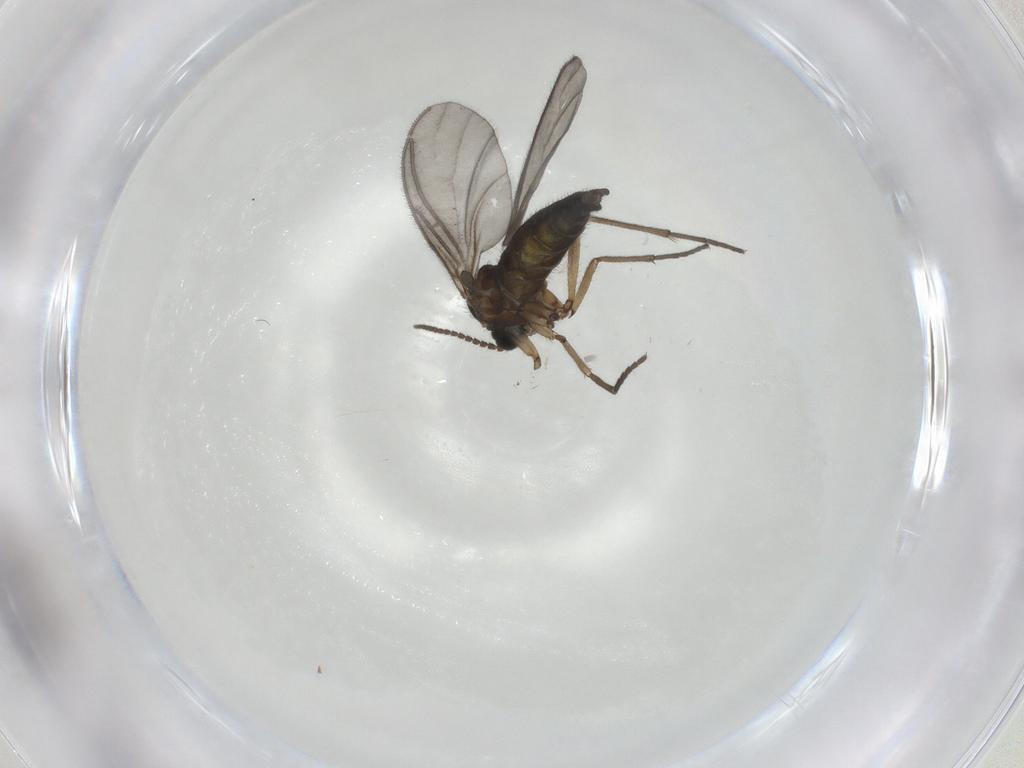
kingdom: Animalia
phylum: Arthropoda
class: Insecta
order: Diptera
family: Sciaridae
